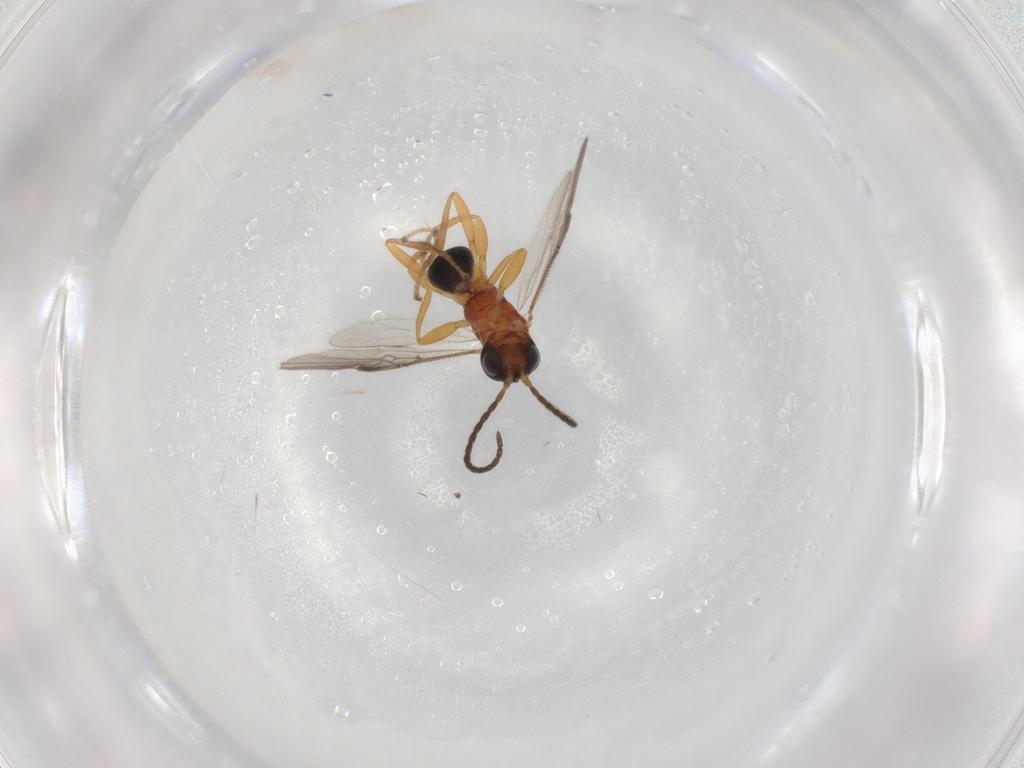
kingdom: Animalia
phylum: Arthropoda
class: Insecta
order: Hymenoptera
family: Braconidae
